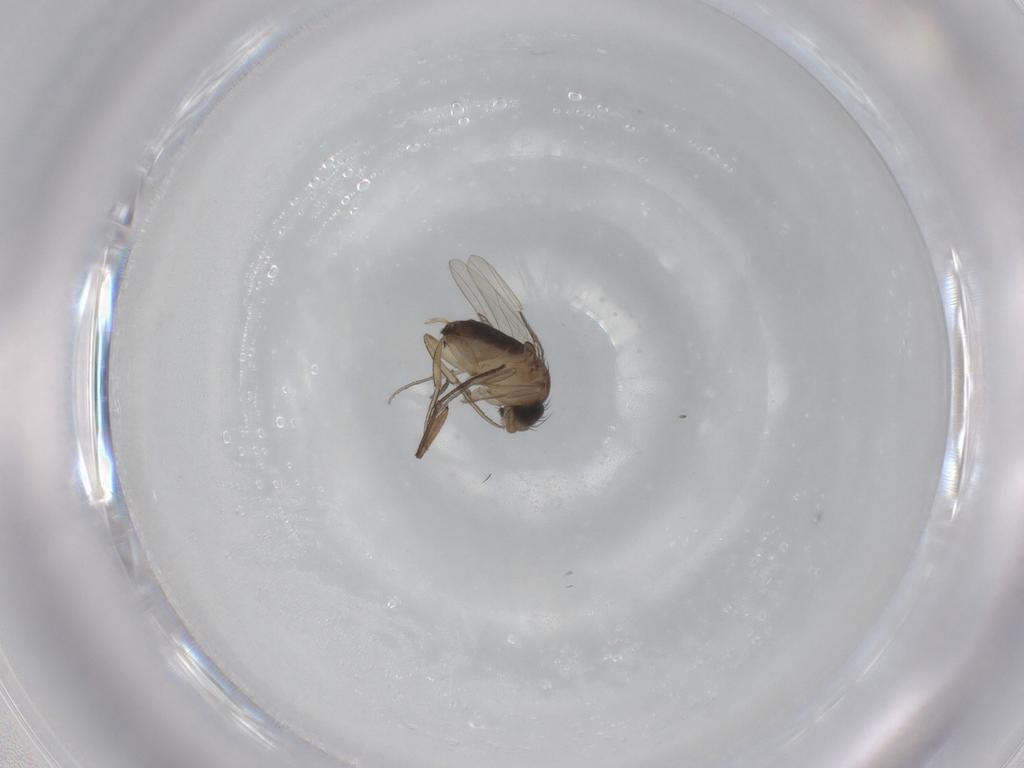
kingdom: Animalia
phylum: Arthropoda
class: Insecta
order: Diptera
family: Phoridae
